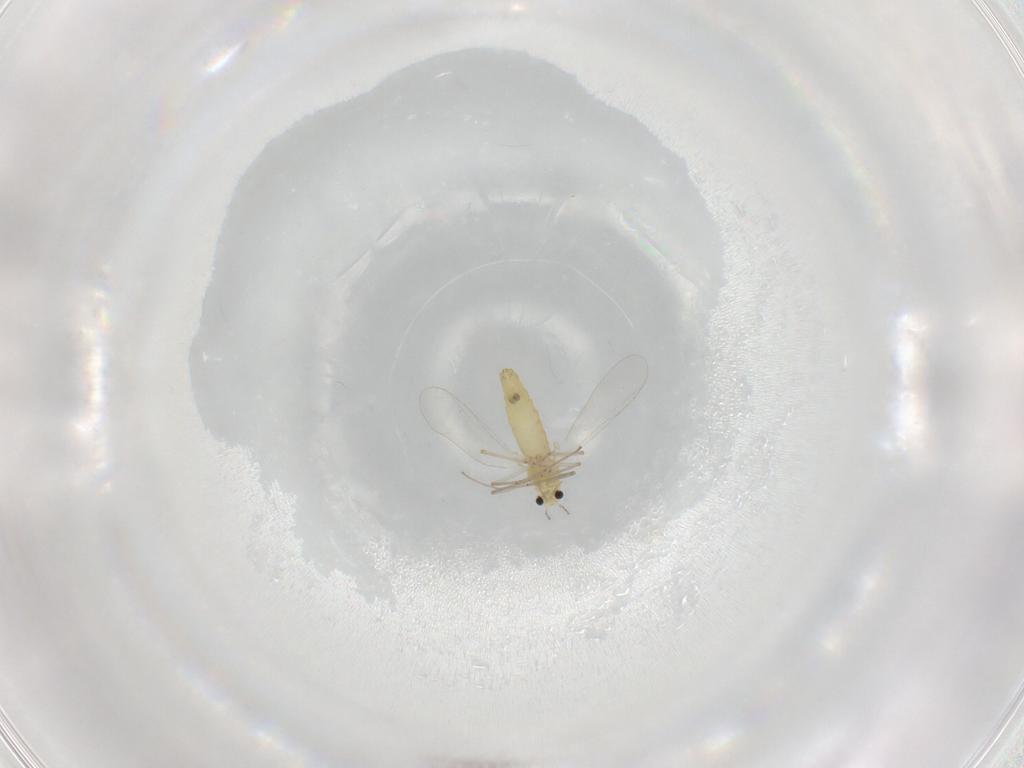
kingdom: Animalia
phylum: Arthropoda
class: Insecta
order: Diptera
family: Chironomidae
